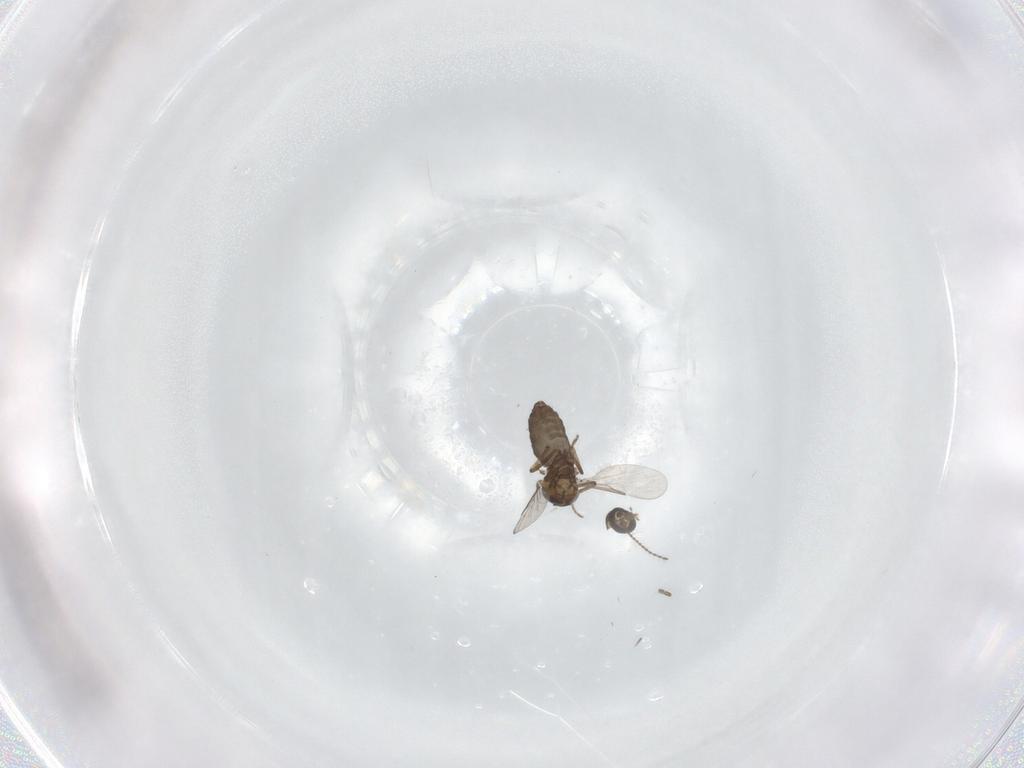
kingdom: Animalia
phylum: Arthropoda
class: Insecta
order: Diptera
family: Ceratopogonidae
